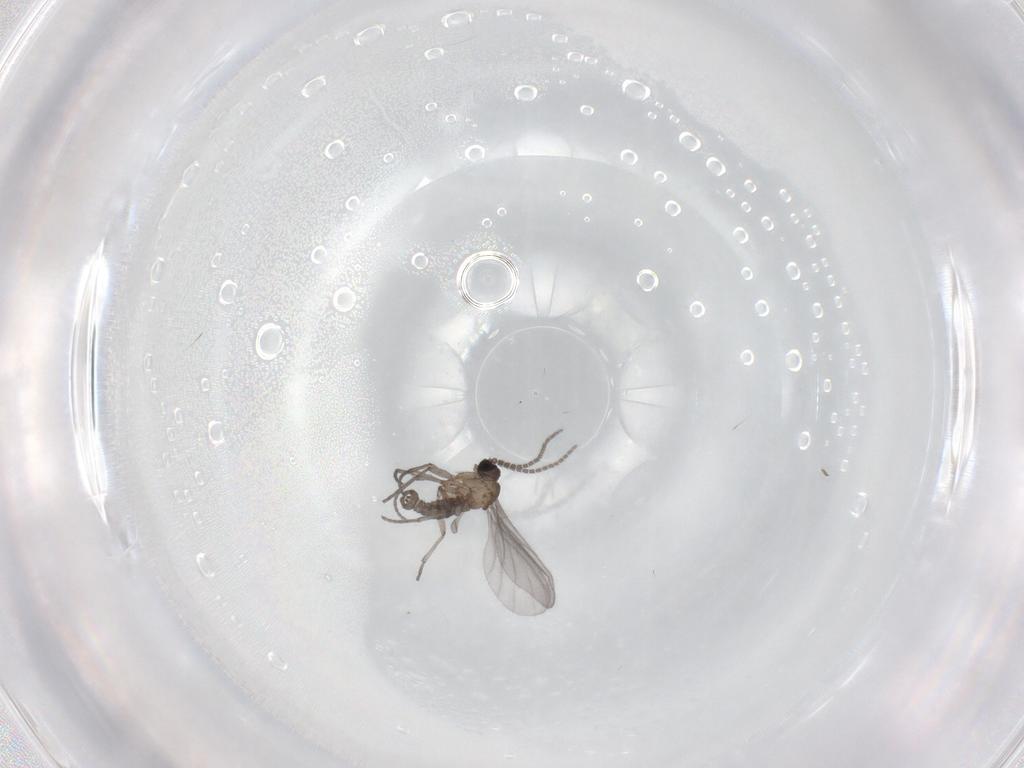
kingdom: Animalia
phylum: Arthropoda
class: Insecta
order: Diptera
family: Sciaridae
